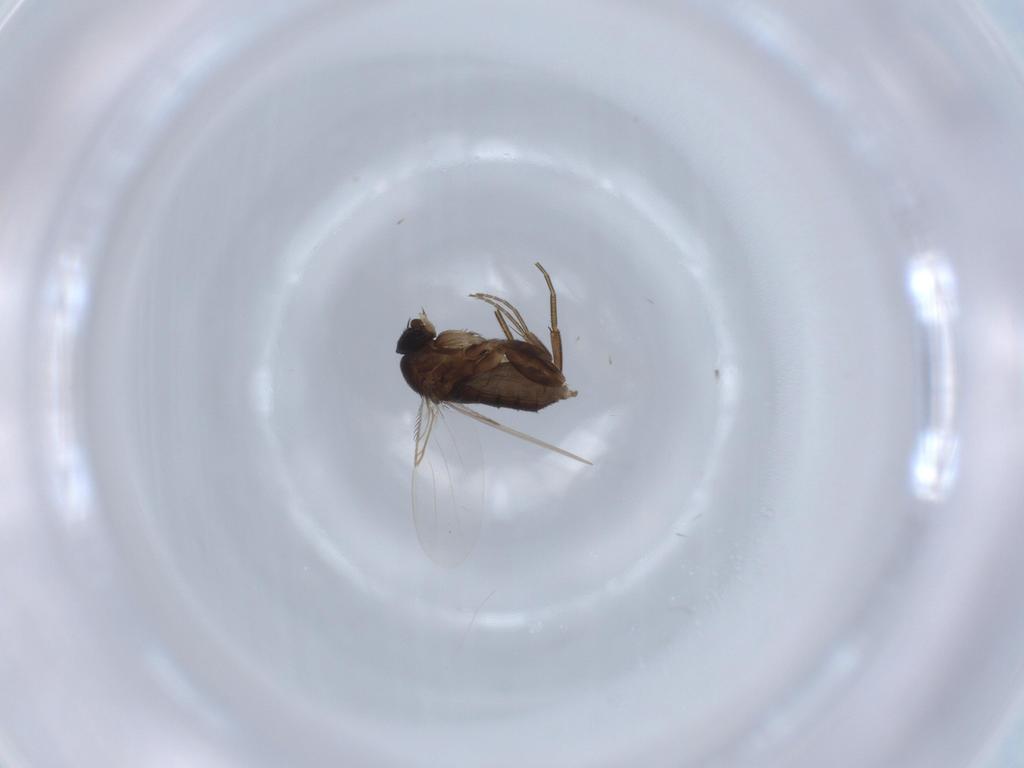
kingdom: Animalia
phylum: Arthropoda
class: Insecta
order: Diptera
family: Phoridae
